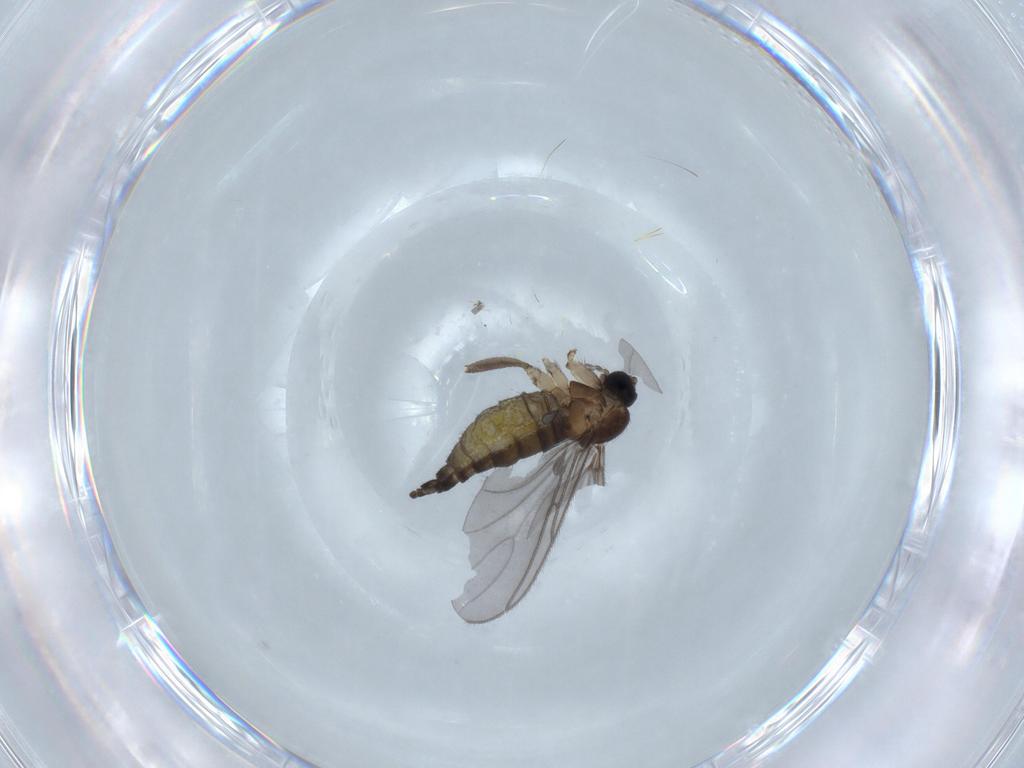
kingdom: Animalia
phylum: Arthropoda
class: Insecta
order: Diptera
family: Sciaridae
